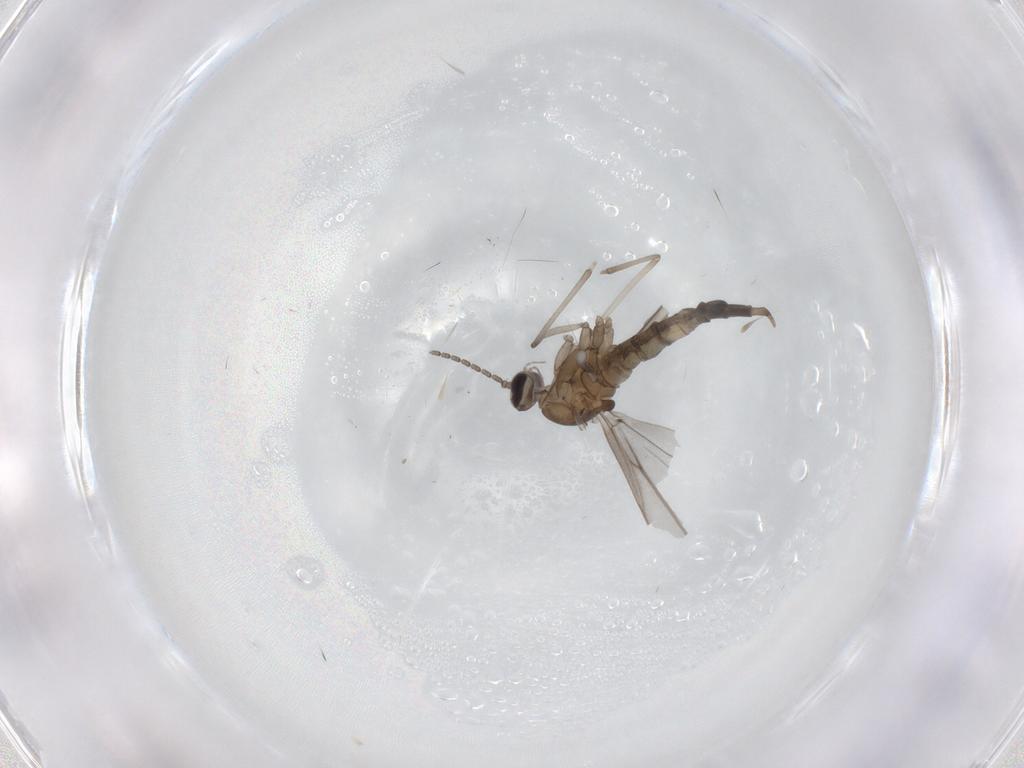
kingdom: Animalia
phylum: Arthropoda
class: Insecta
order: Diptera
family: Cecidomyiidae
